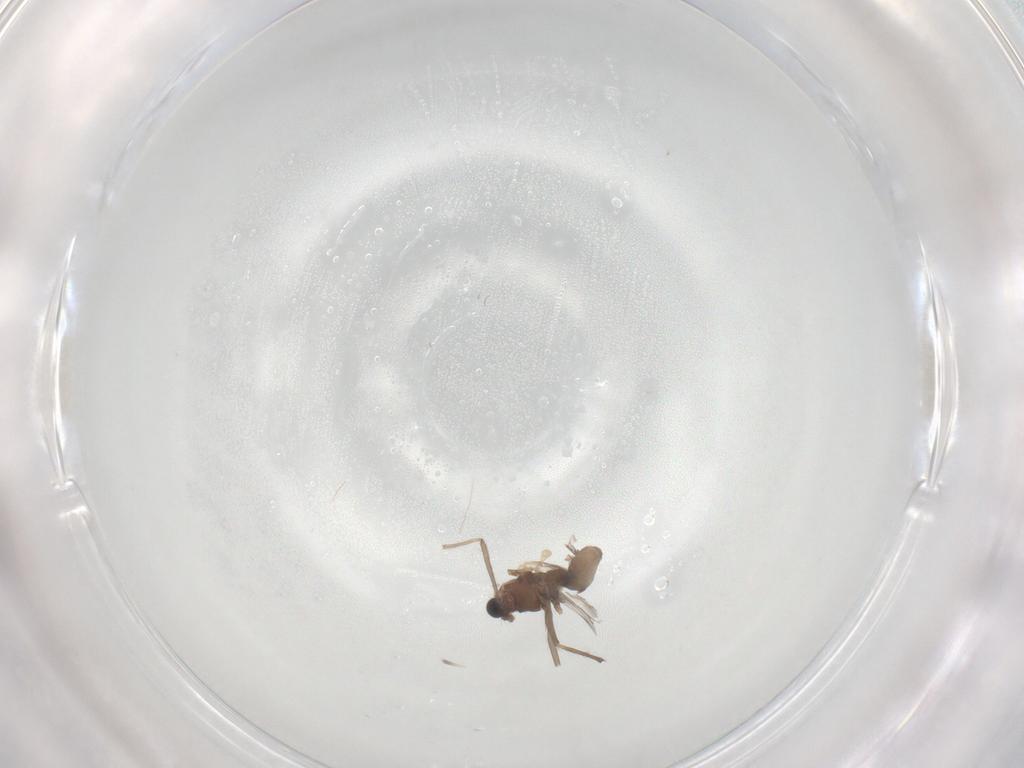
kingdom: Animalia
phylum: Arthropoda
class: Insecta
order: Diptera
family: Chironomidae
